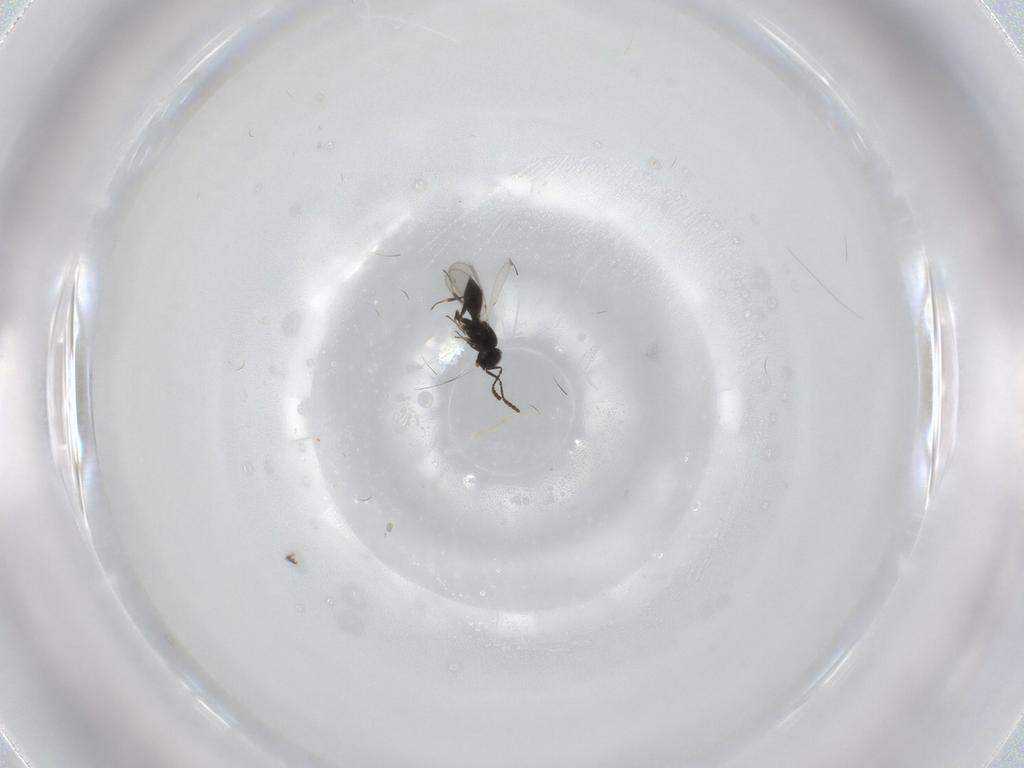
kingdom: Animalia
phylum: Arthropoda
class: Insecta
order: Hymenoptera
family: Scelionidae
